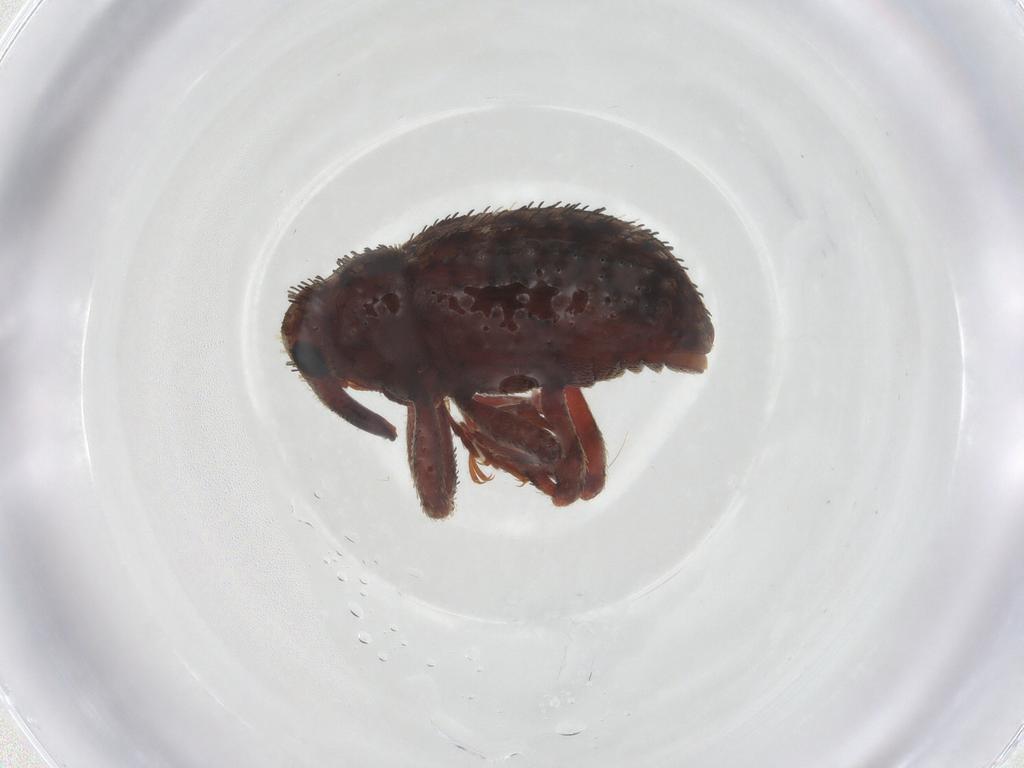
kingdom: Animalia
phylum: Arthropoda
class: Insecta
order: Coleoptera
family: Curculionidae
